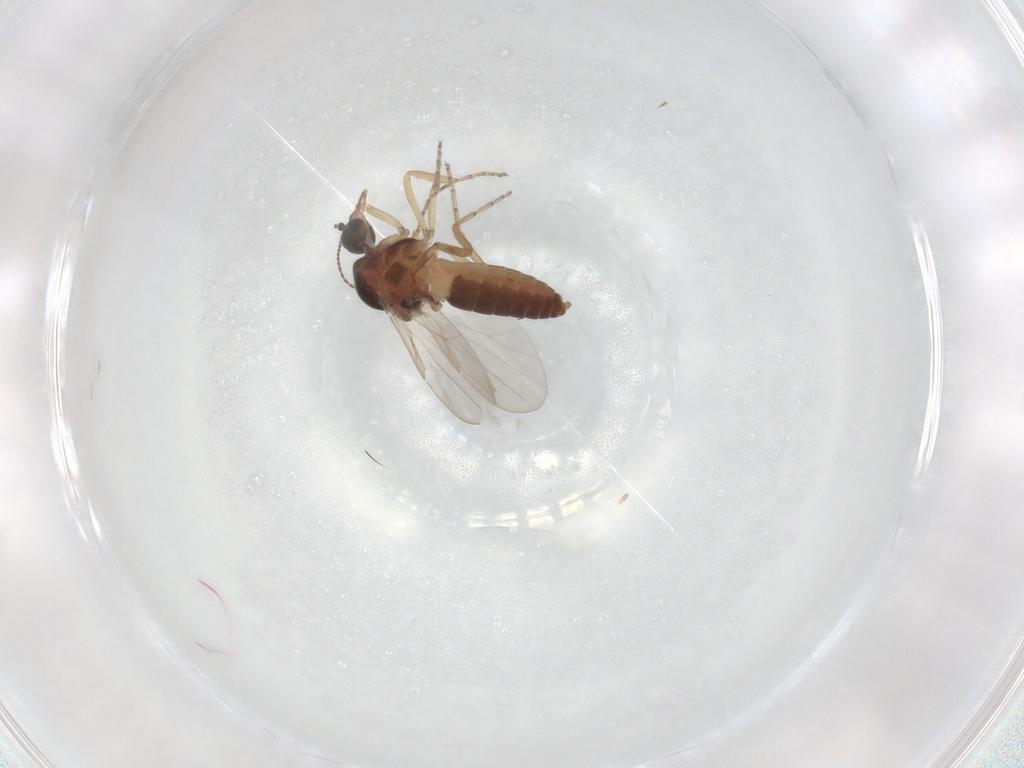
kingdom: Animalia
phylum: Arthropoda
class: Insecta
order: Diptera
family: Ceratopogonidae
